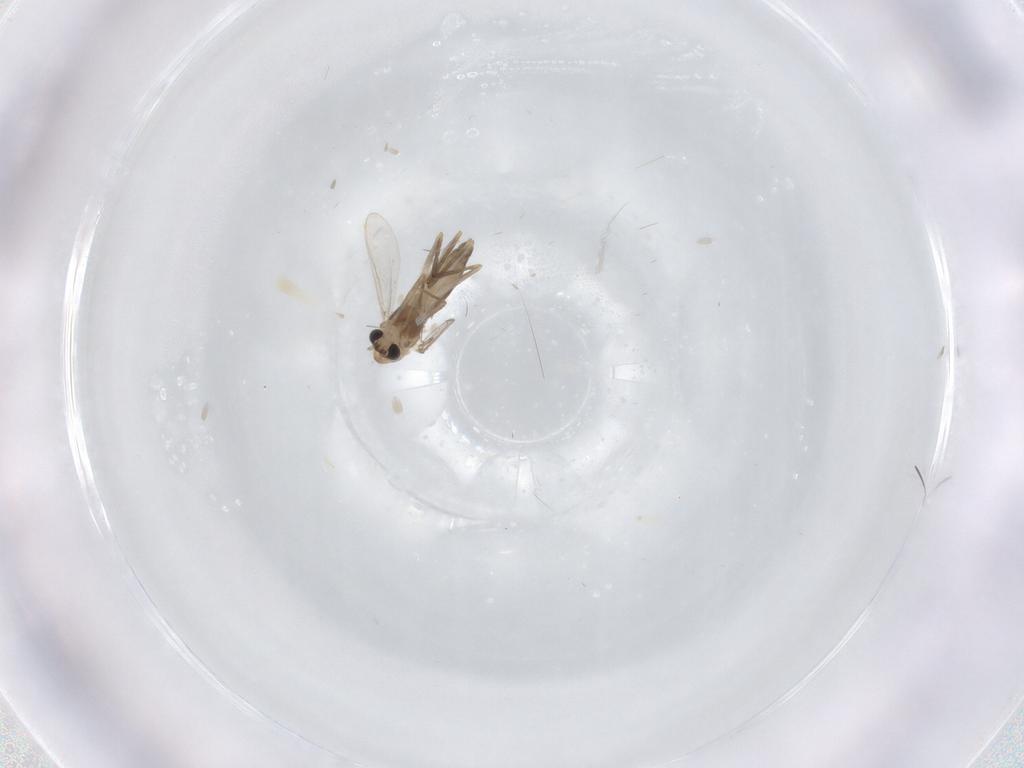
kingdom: Animalia
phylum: Arthropoda
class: Insecta
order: Diptera
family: Chironomidae
